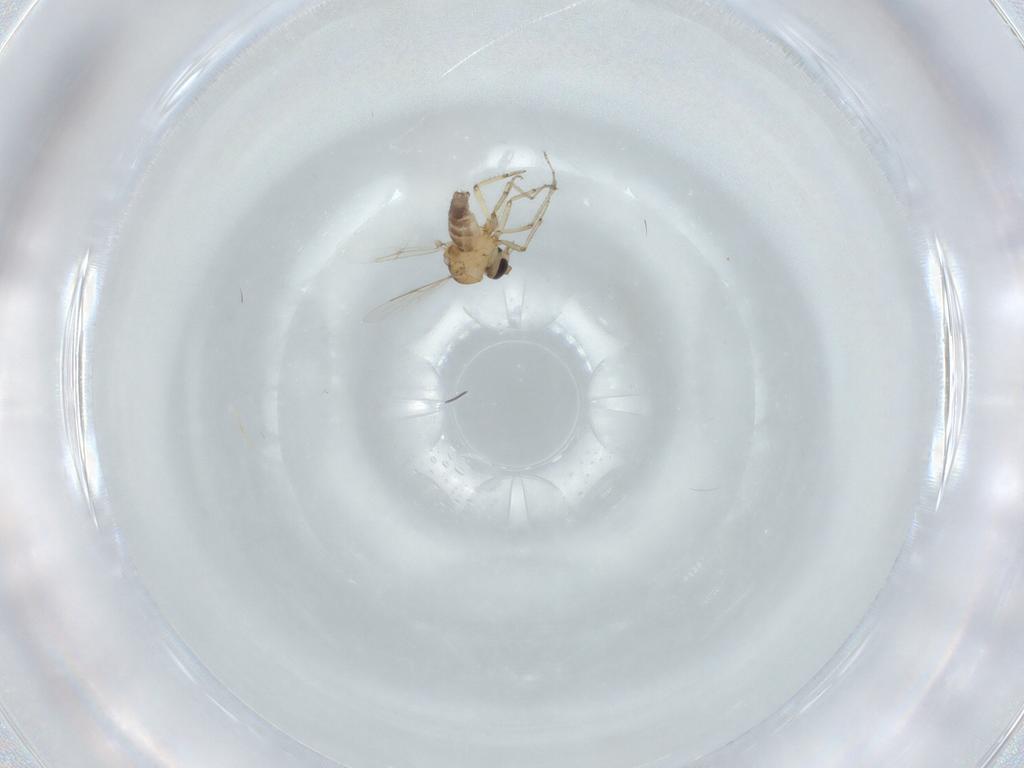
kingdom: Animalia
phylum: Arthropoda
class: Insecta
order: Diptera
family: Ceratopogonidae
